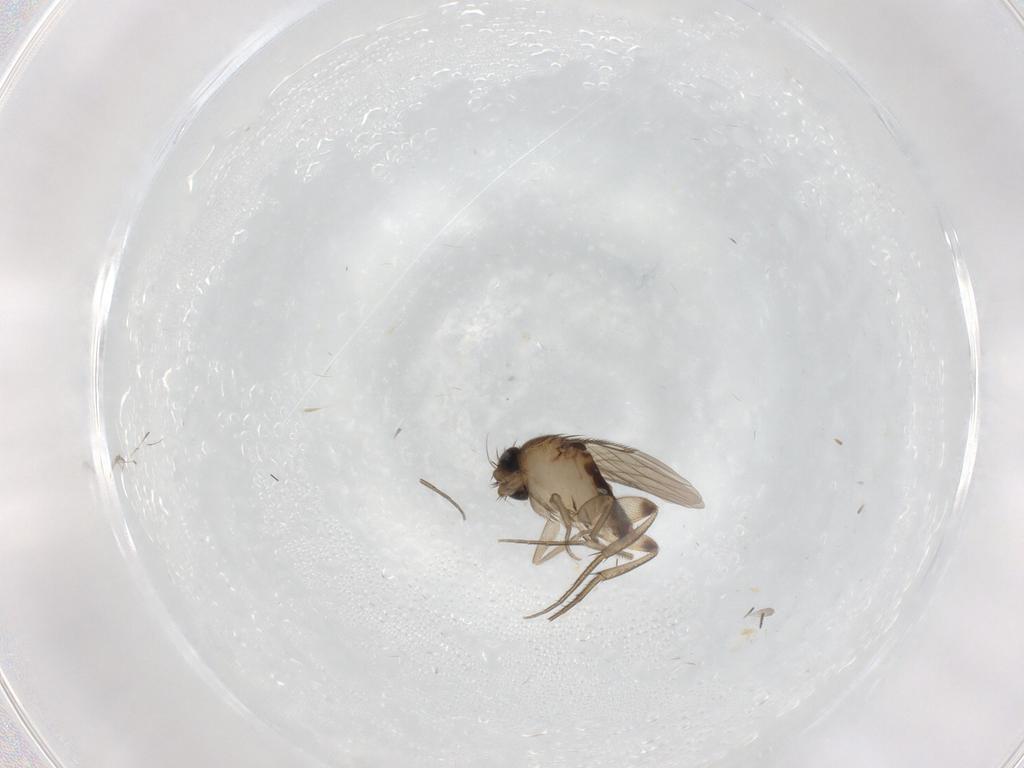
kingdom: Animalia
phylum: Arthropoda
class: Insecta
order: Diptera
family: Phoridae
